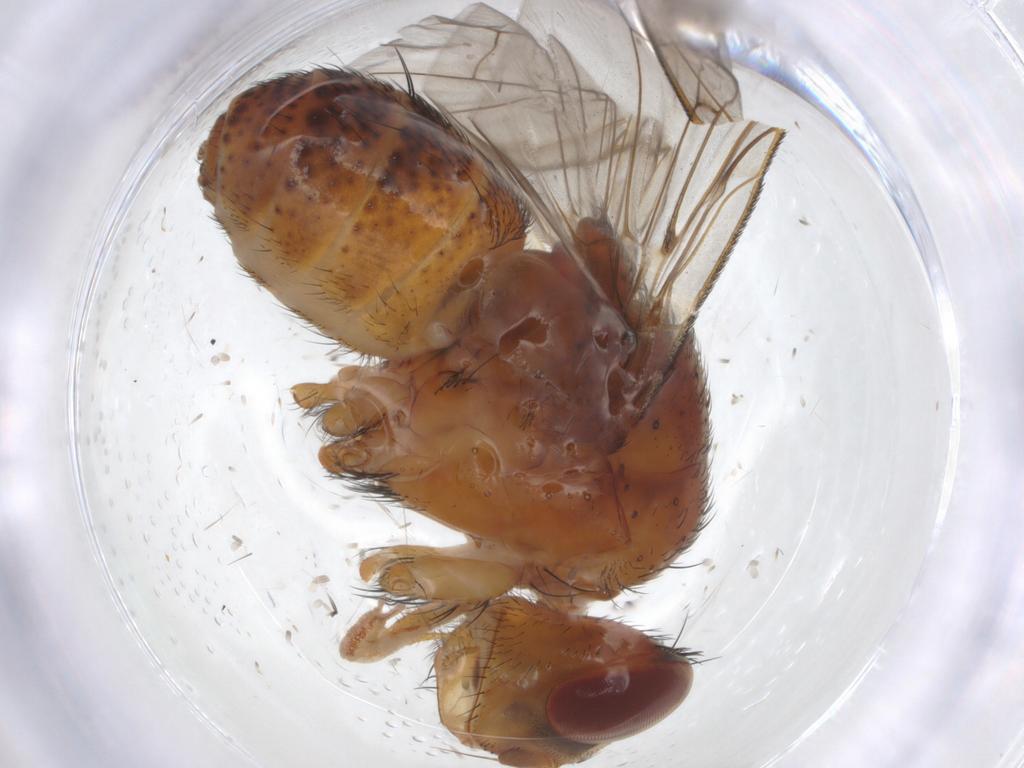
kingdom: Animalia
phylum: Arthropoda
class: Insecta
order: Diptera
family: Tachinidae
